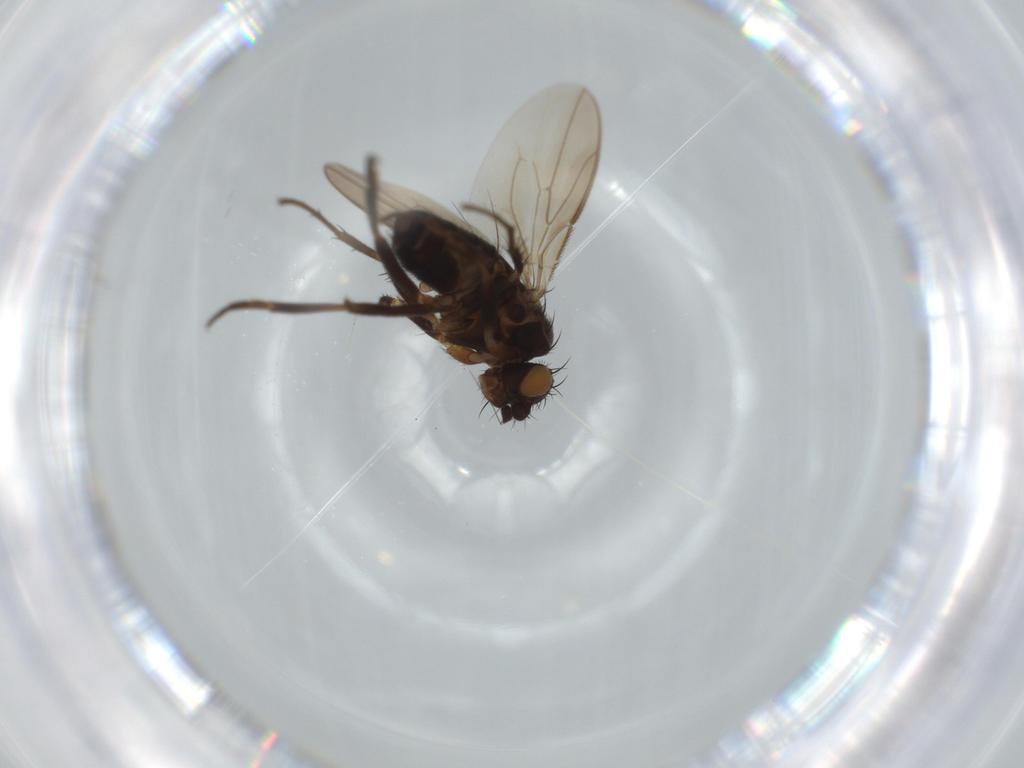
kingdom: Animalia
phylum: Arthropoda
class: Insecta
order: Diptera
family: Sphaeroceridae
